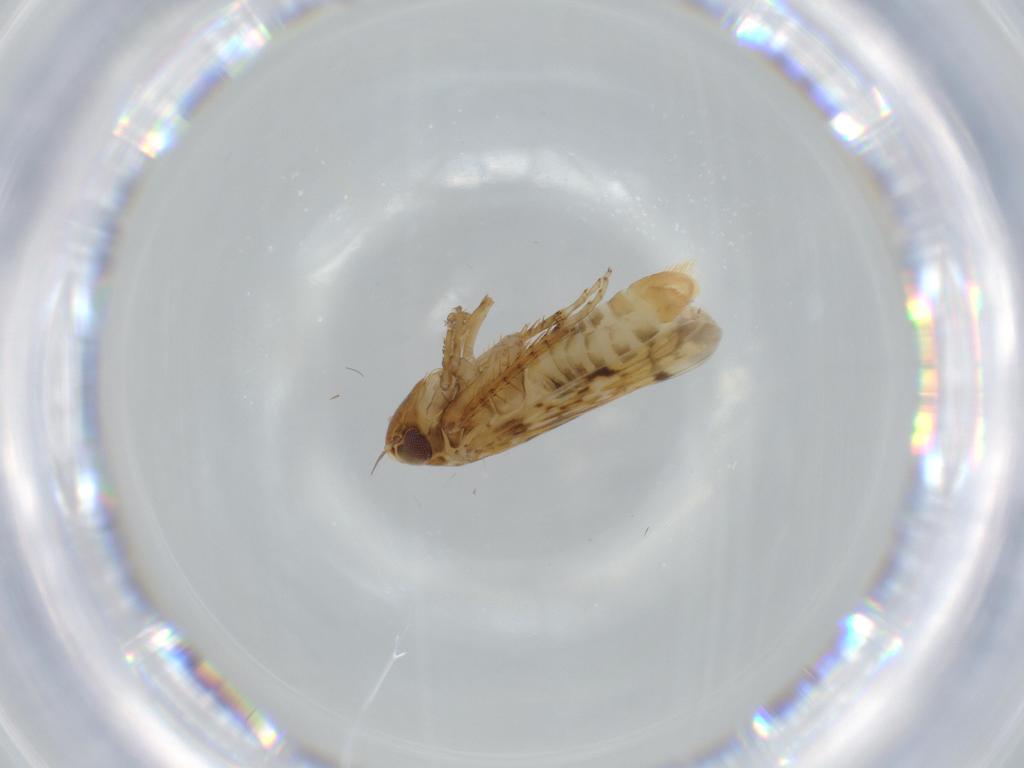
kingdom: Animalia
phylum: Arthropoda
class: Insecta
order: Hemiptera
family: Cicadellidae
